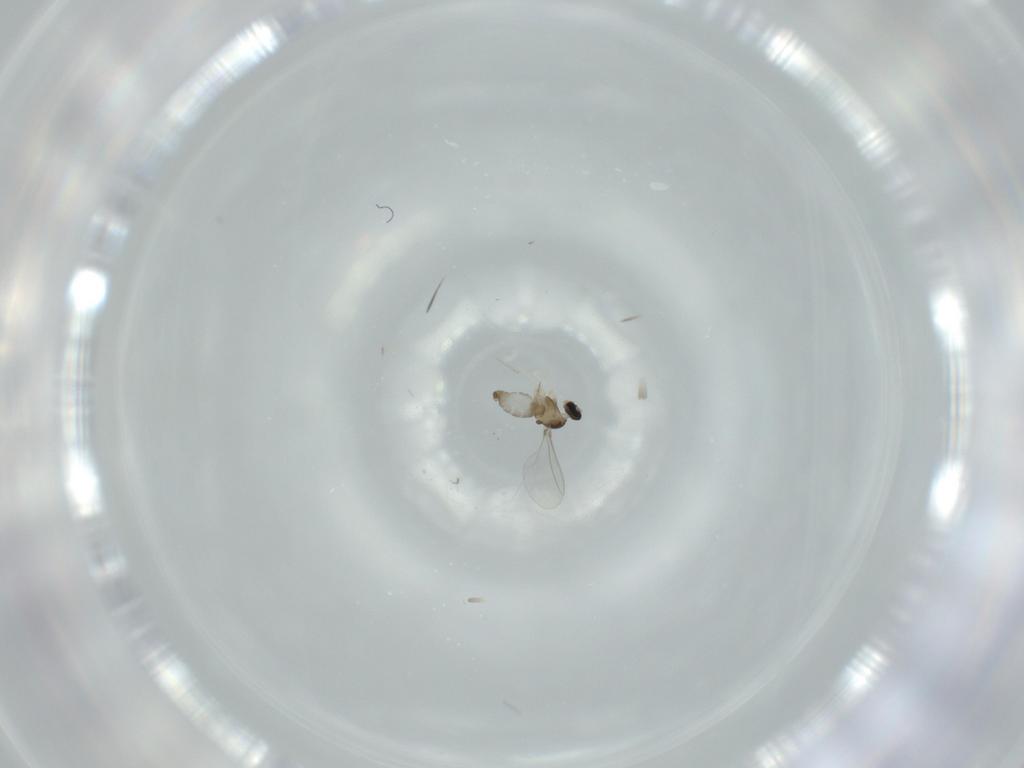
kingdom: Animalia
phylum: Arthropoda
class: Insecta
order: Diptera
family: Cecidomyiidae
